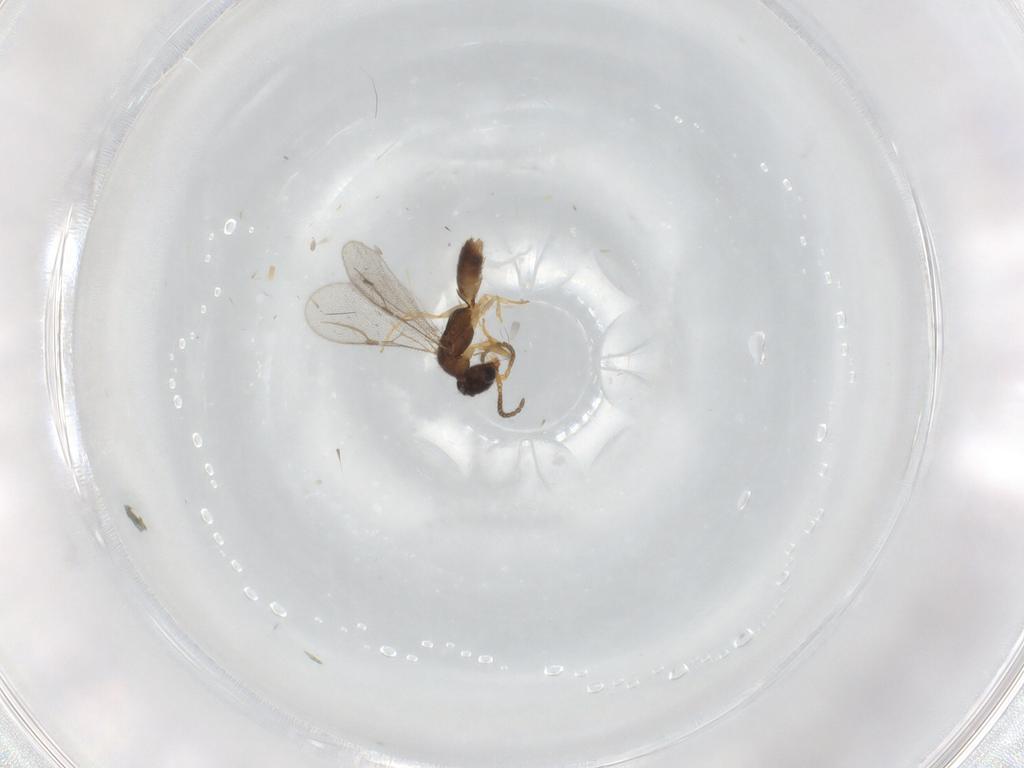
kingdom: Animalia
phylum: Arthropoda
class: Insecta
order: Hymenoptera
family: Bethylidae
